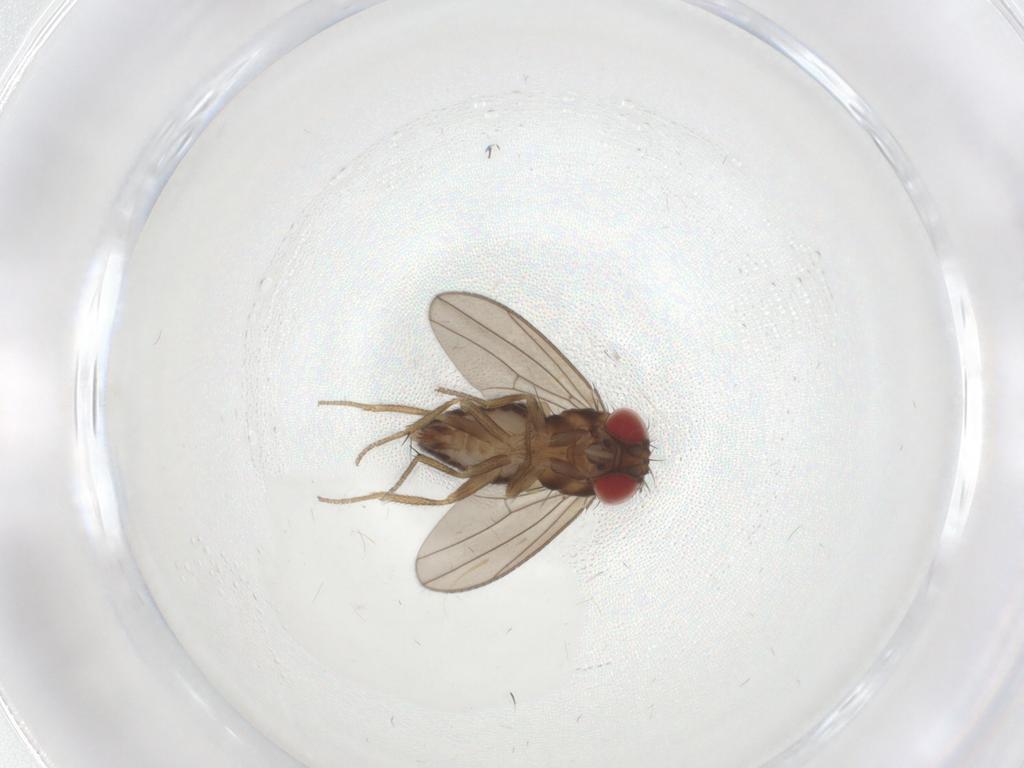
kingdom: Animalia
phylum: Arthropoda
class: Insecta
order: Diptera
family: Drosophilidae
